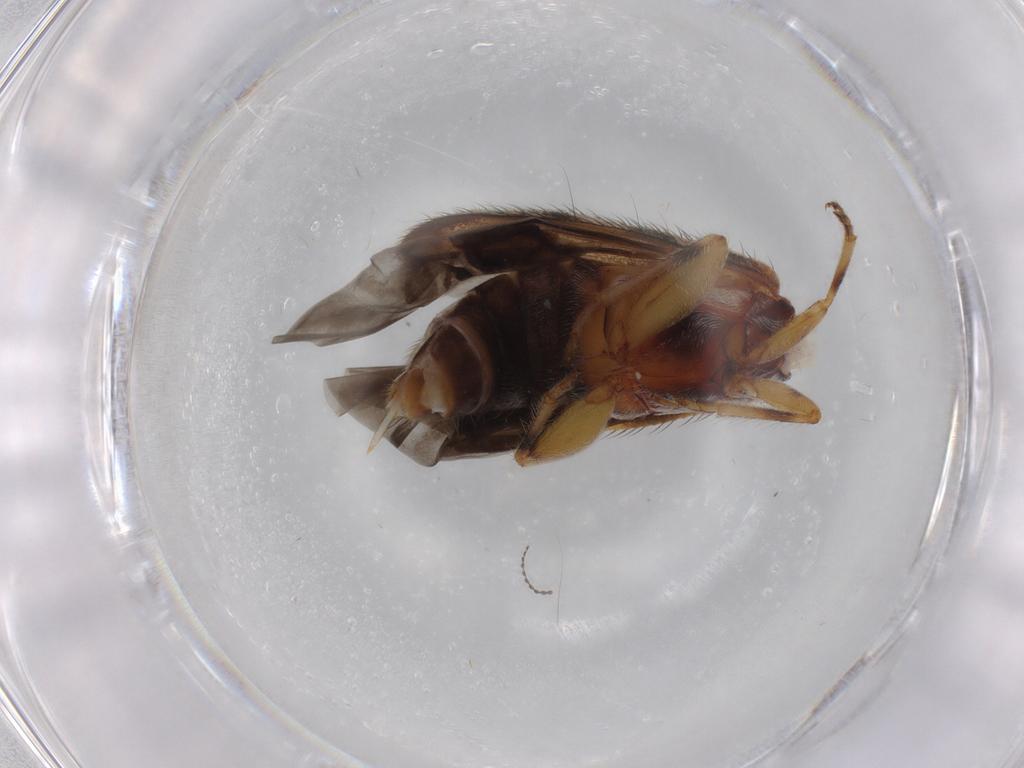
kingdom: Animalia
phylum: Arthropoda
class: Insecta
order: Coleoptera
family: Cleridae
